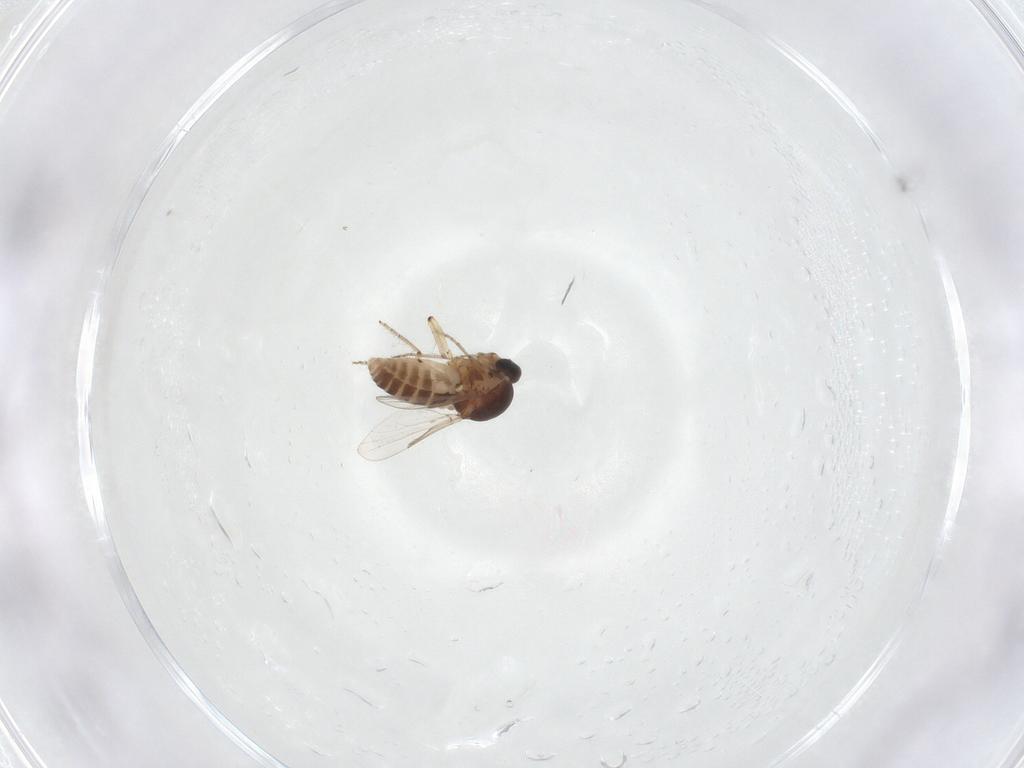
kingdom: Animalia
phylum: Arthropoda
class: Insecta
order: Diptera
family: Ceratopogonidae
